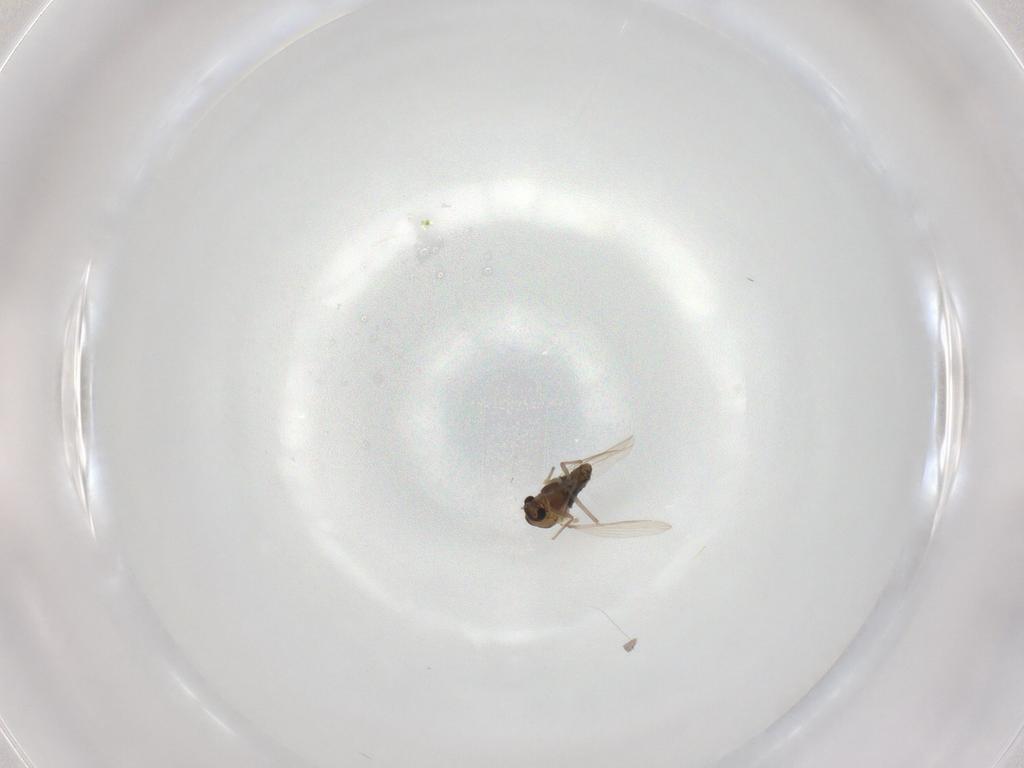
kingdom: Animalia
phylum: Arthropoda
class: Insecta
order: Diptera
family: Chironomidae
